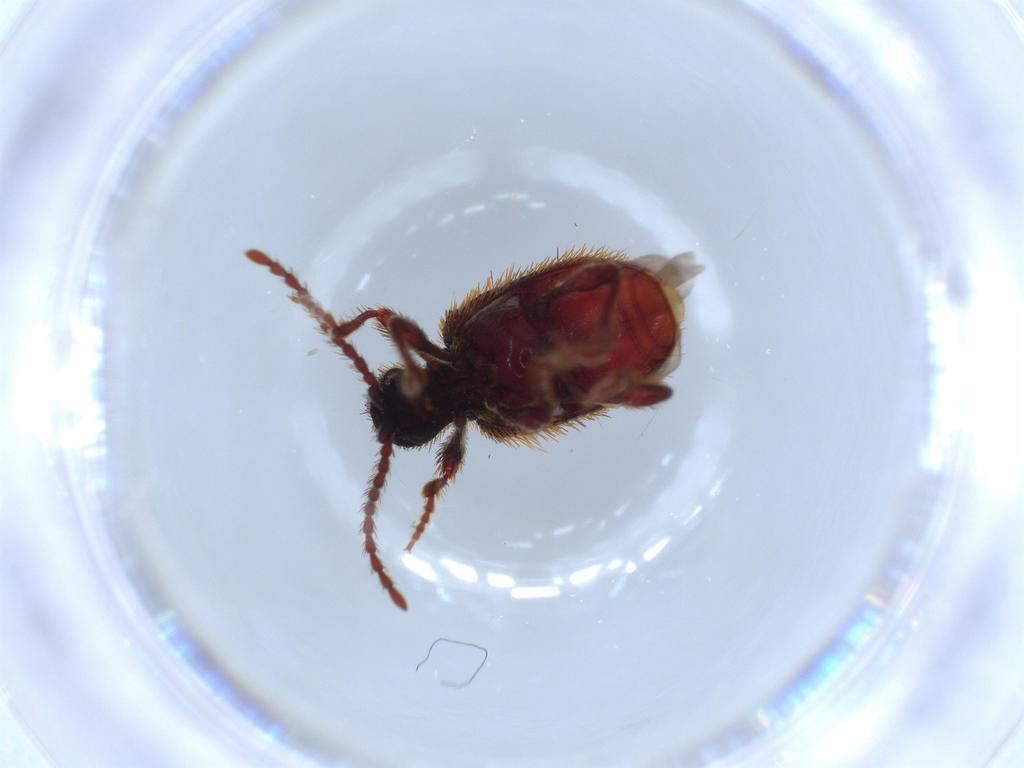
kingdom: Animalia
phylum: Arthropoda
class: Insecta
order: Coleoptera
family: Ptinidae
